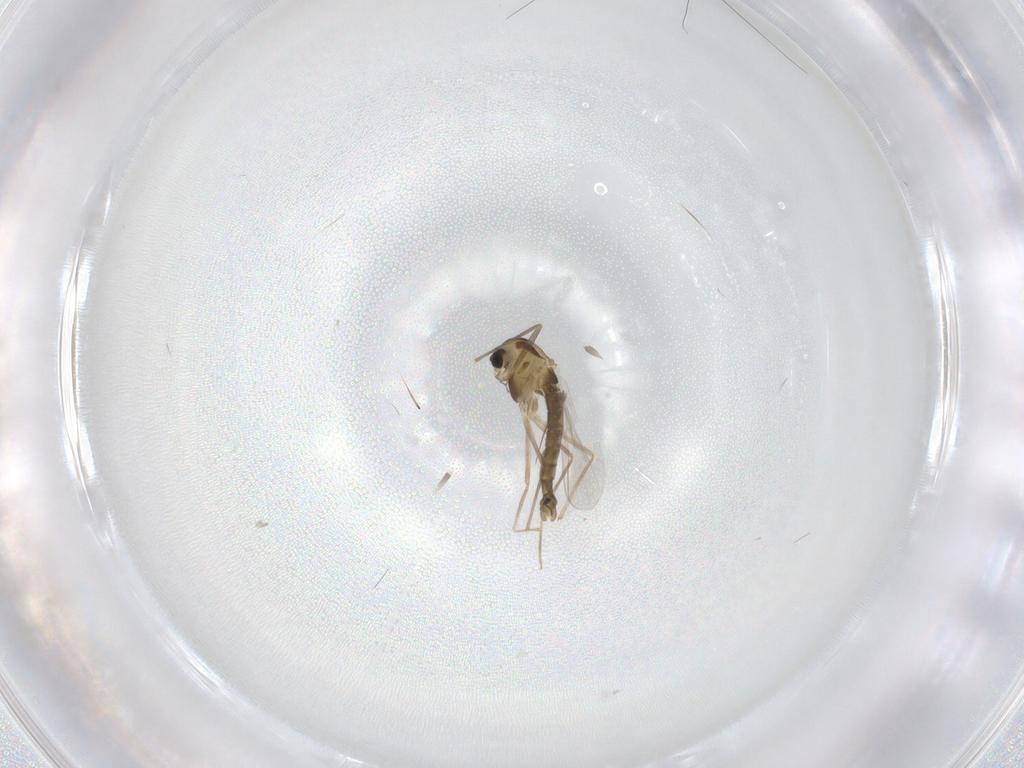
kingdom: Animalia
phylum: Arthropoda
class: Insecta
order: Diptera
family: Chironomidae
